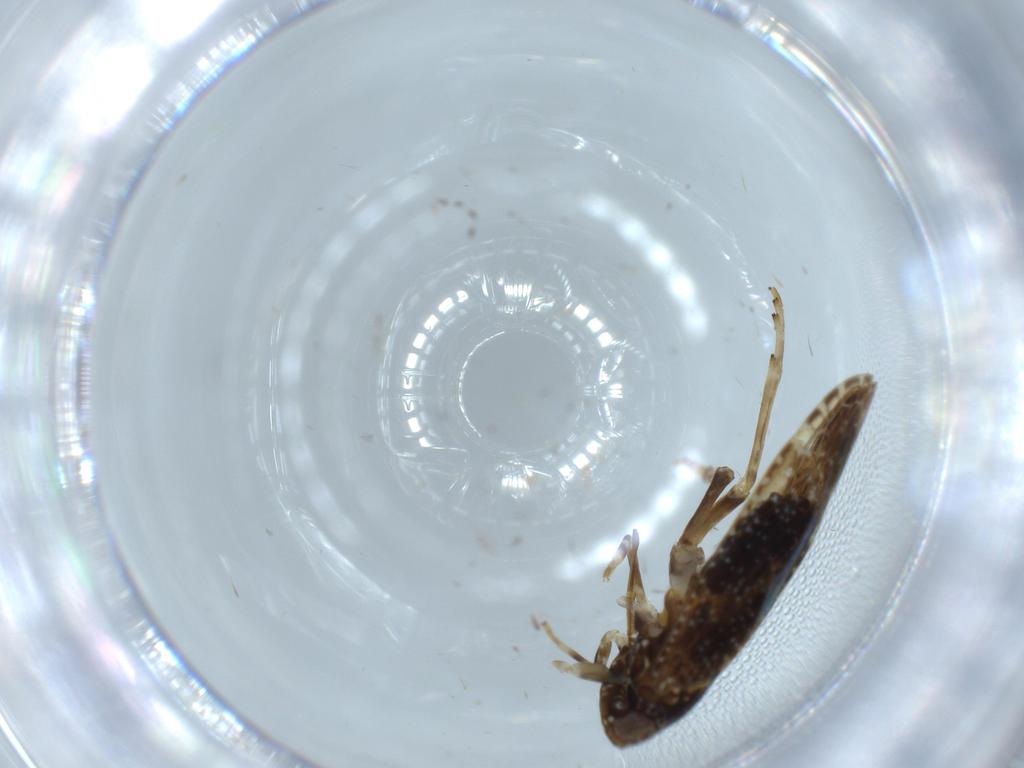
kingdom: Animalia
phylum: Arthropoda
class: Insecta
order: Diptera
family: Cecidomyiidae
